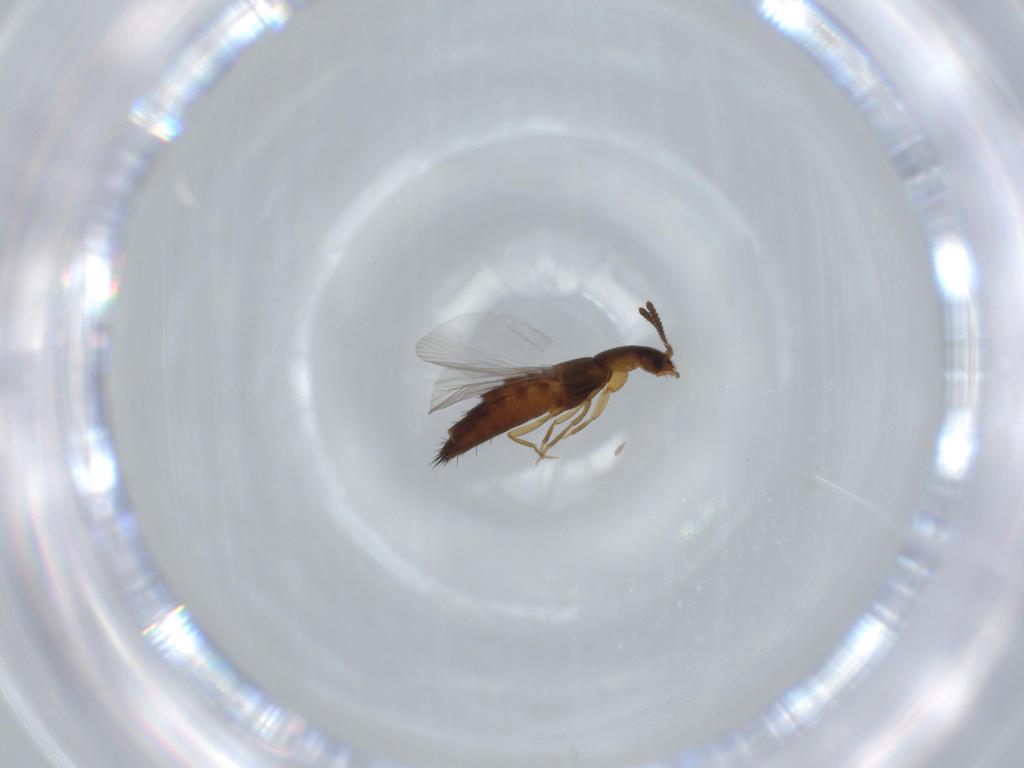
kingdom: Animalia
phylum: Arthropoda
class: Insecta
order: Coleoptera
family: Staphylinidae
